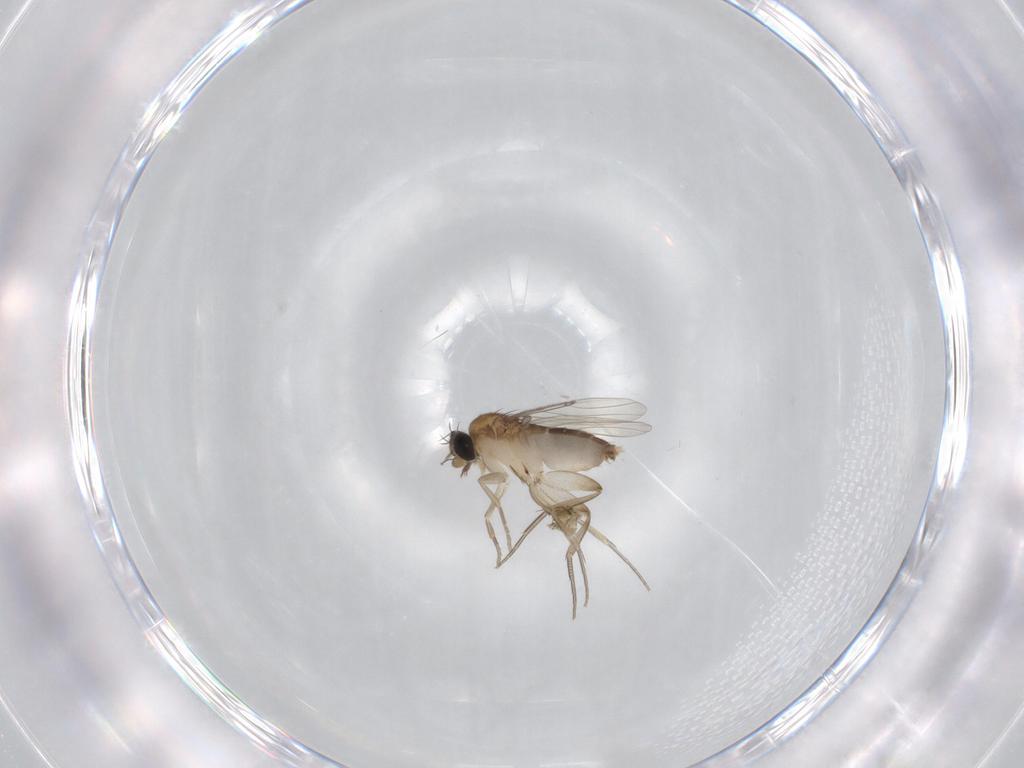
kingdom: Animalia
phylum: Arthropoda
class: Insecta
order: Diptera
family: Phoridae
